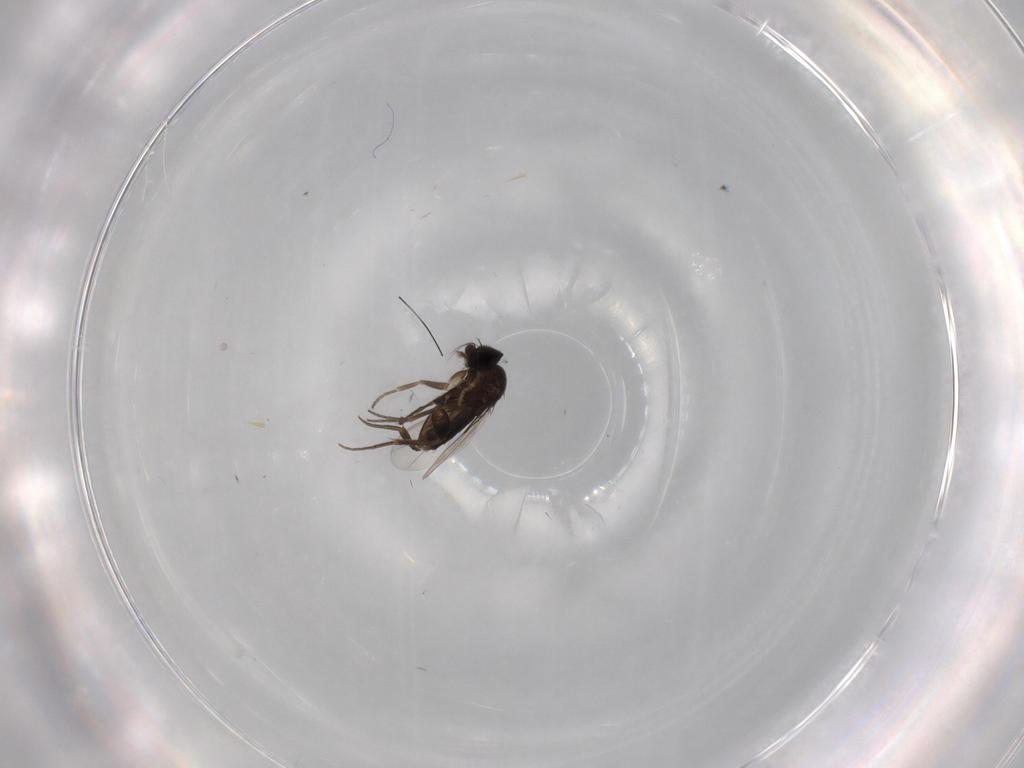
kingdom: Animalia
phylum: Arthropoda
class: Insecta
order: Diptera
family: Phoridae
